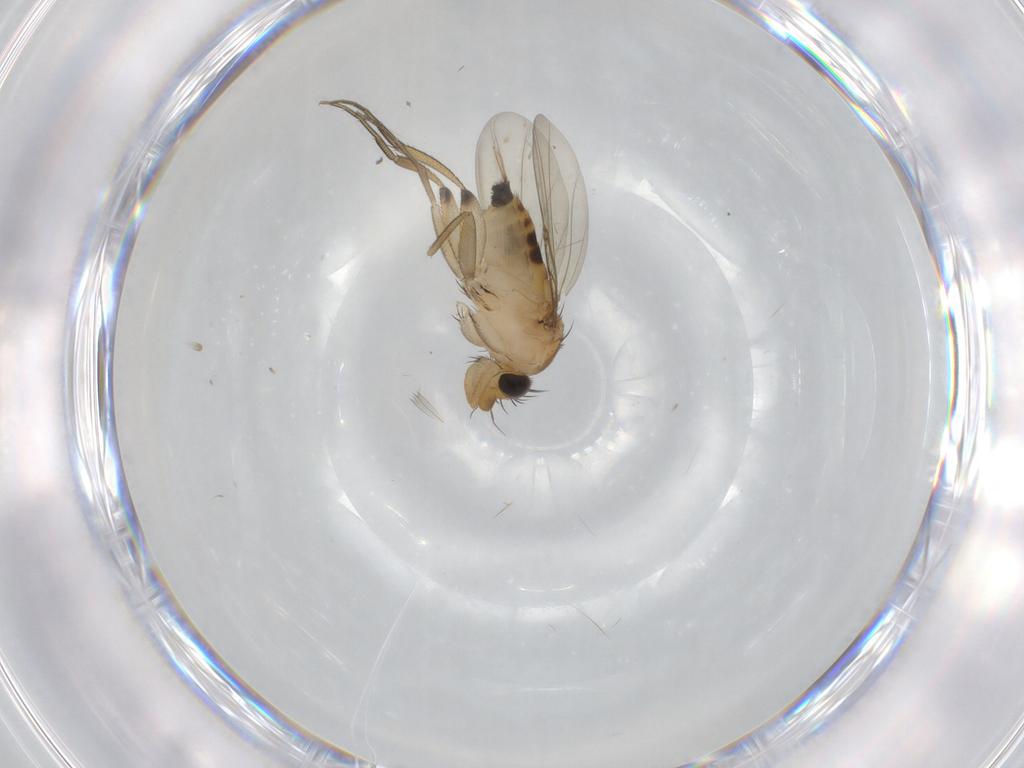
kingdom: Animalia
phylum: Arthropoda
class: Insecta
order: Diptera
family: Phoridae
